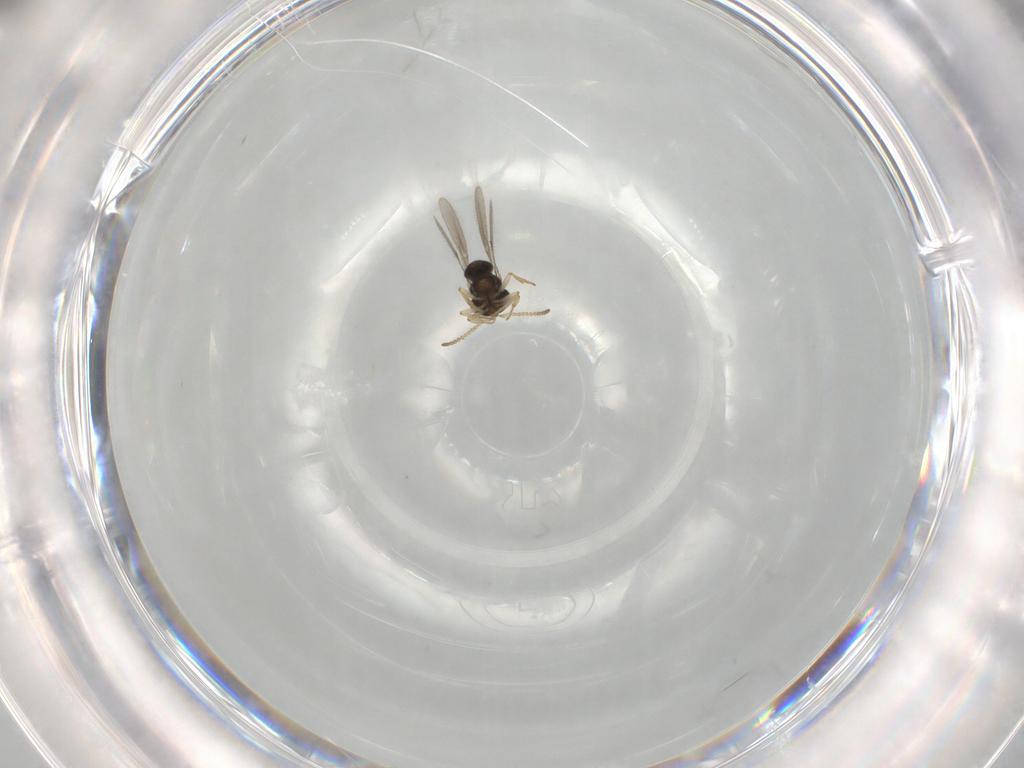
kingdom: Animalia
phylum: Arthropoda
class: Insecta
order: Hymenoptera
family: Scelionidae
